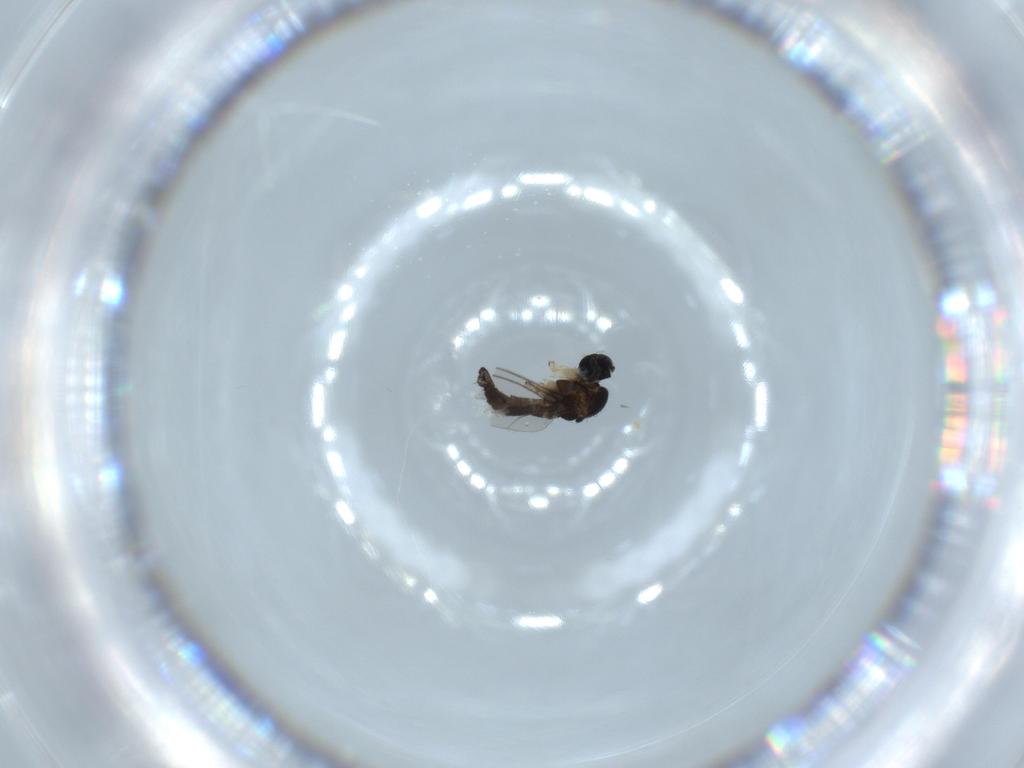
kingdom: Animalia
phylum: Arthropoda
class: Insecta
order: Diptera
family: Sciaridae
